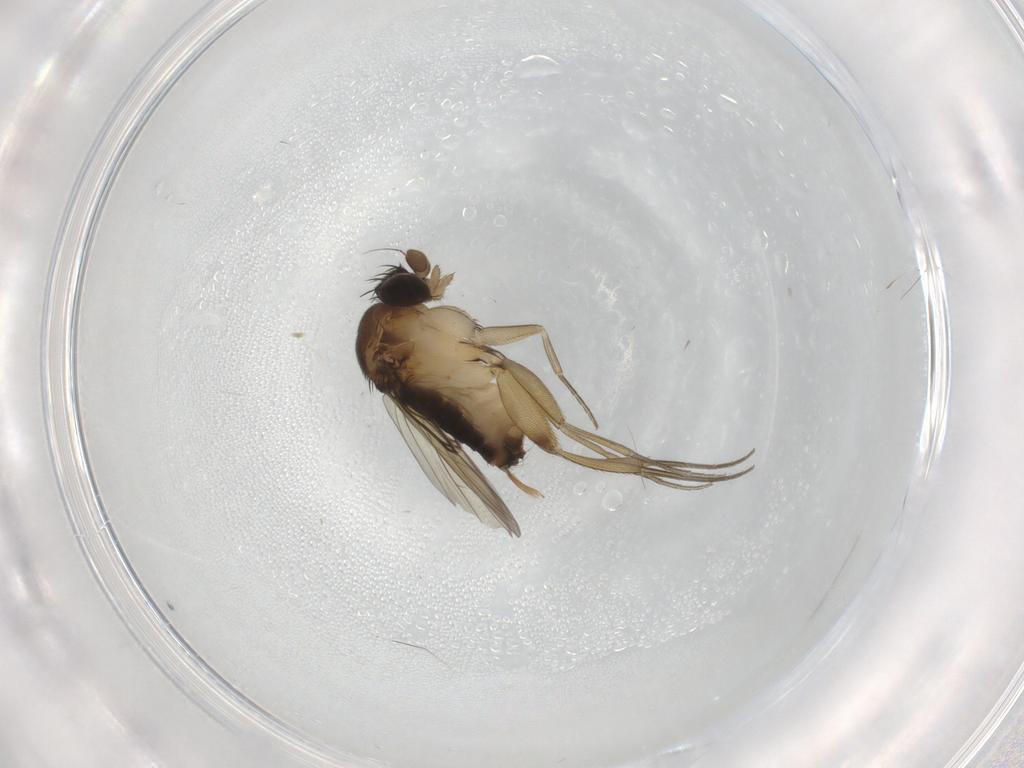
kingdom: Animalia
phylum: Arthropoda
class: Insecta
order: Diptera
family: Phoridae
